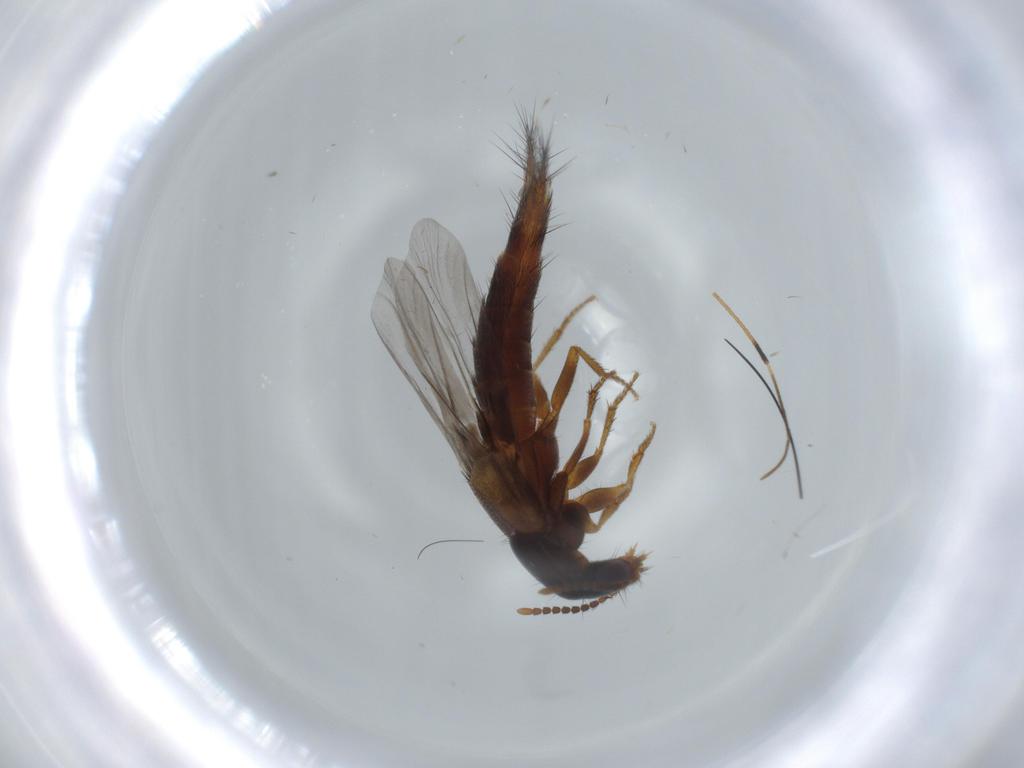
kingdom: Animalia
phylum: Arthropoda
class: Insecta
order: Coleoptera
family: Staphylinidae
